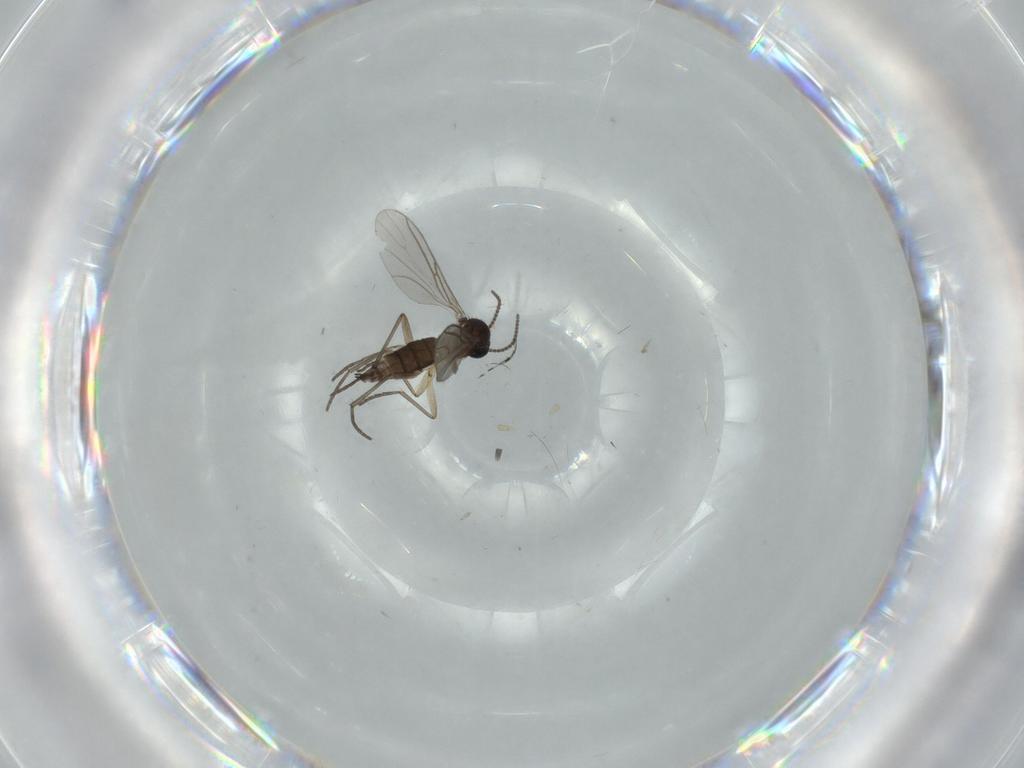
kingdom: Animalia
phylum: Arthropoda
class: Insecta
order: Diptera
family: Sciaridae
